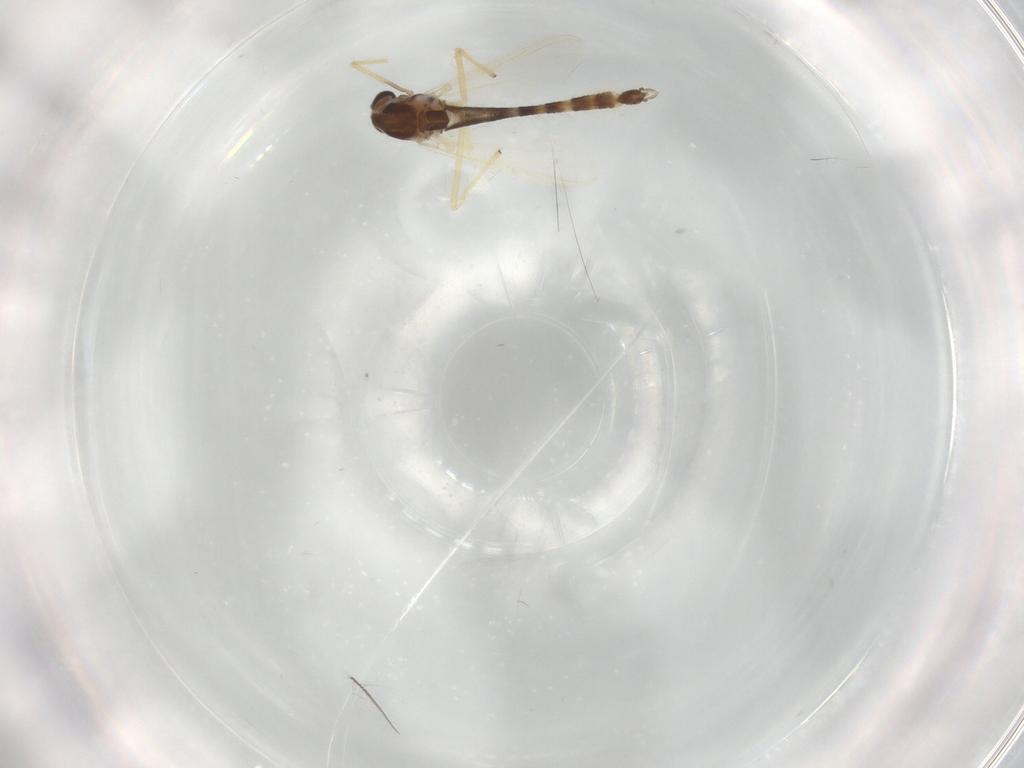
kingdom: Animalia
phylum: Arthropoda
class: Insecta
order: Diptera
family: Chironomidae
